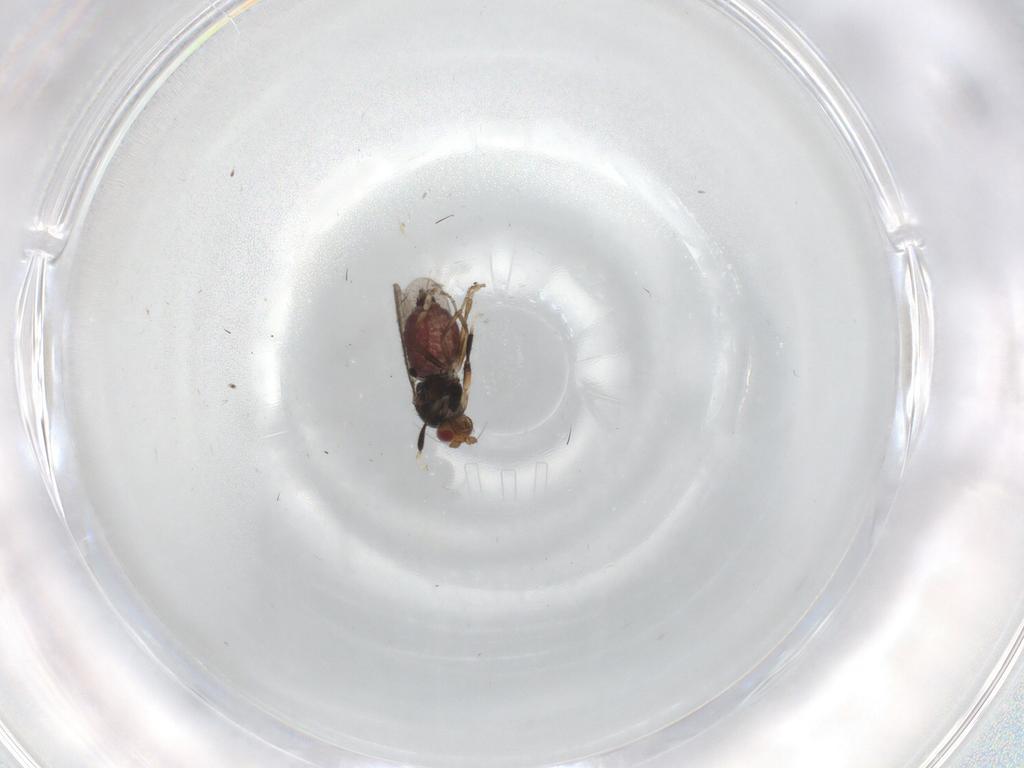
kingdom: Animalia
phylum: Arthropoda
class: Insecta
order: Diptera
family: Sphaeroceridae
